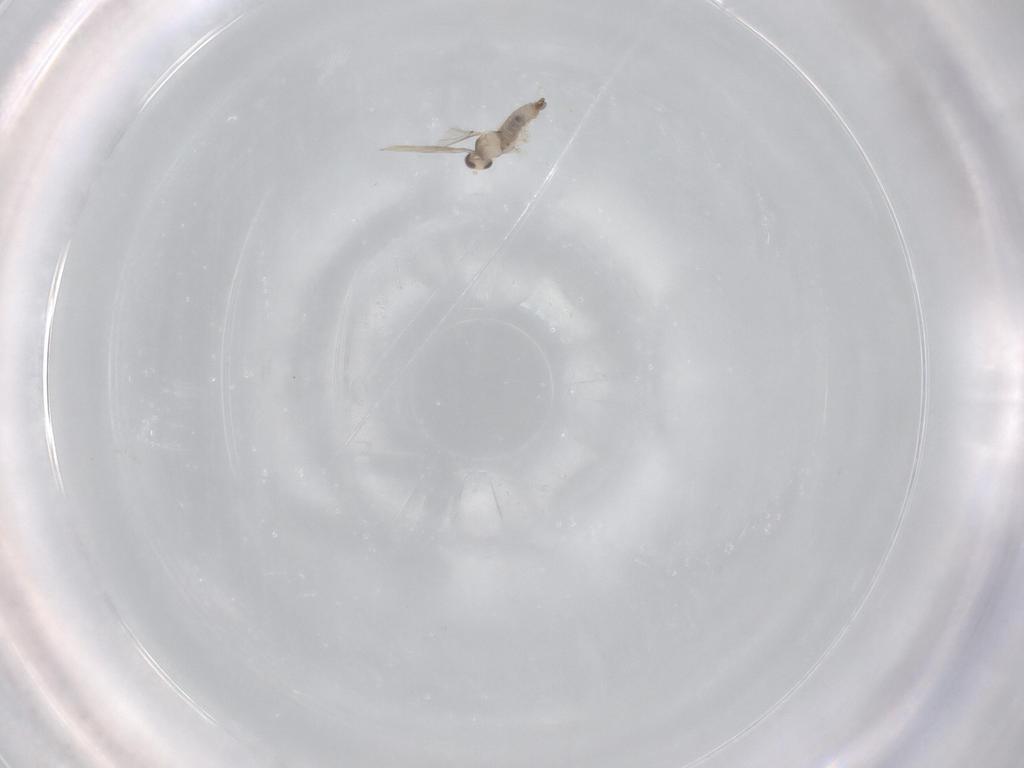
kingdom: Animalia
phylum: Arthropoda
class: Insecta
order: Diptera
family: Cecidomyiidae
